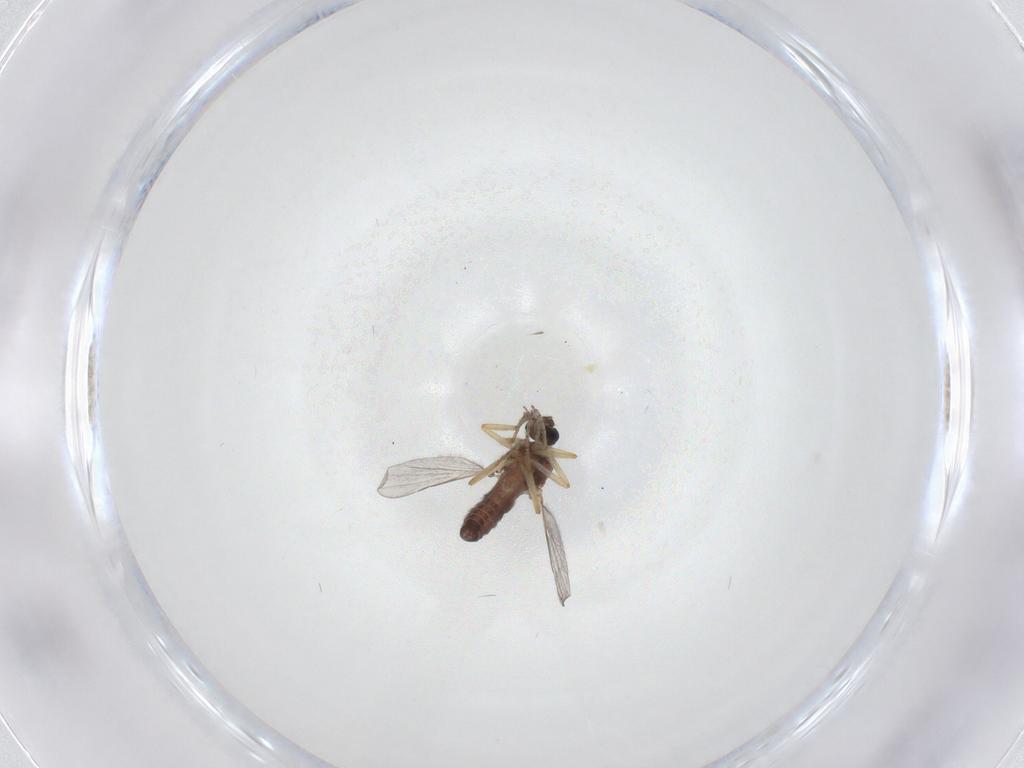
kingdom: Animalia
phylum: Arthropoda
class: Insecta
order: Diptera
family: Ceratopogonidae
